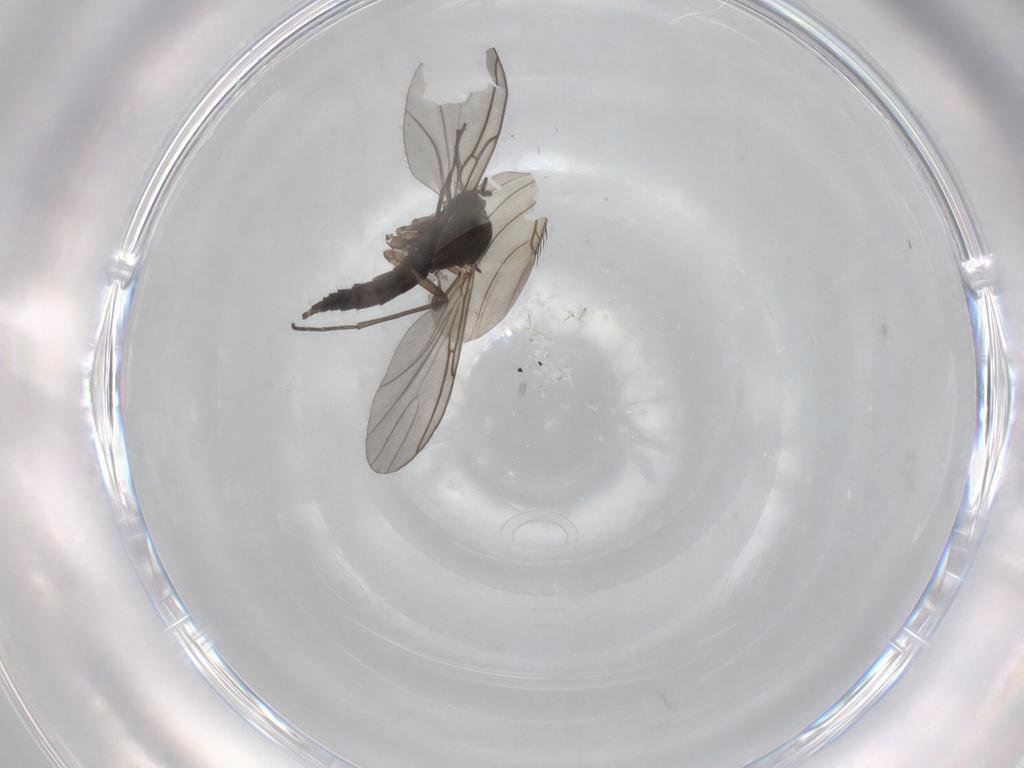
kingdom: Animalia
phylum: Arthropoda
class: Insecta
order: Diptera
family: Sciaridae
